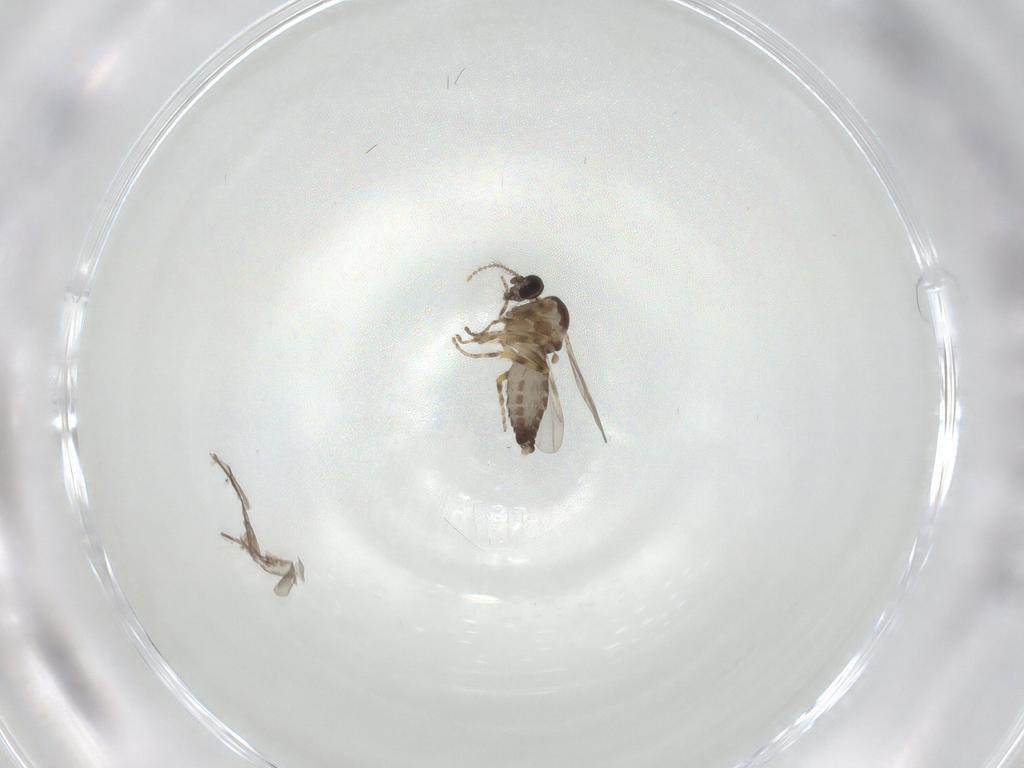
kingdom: Animalia
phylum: Arthropoda
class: Insecta
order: Diptera
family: Ceratopogonidae
